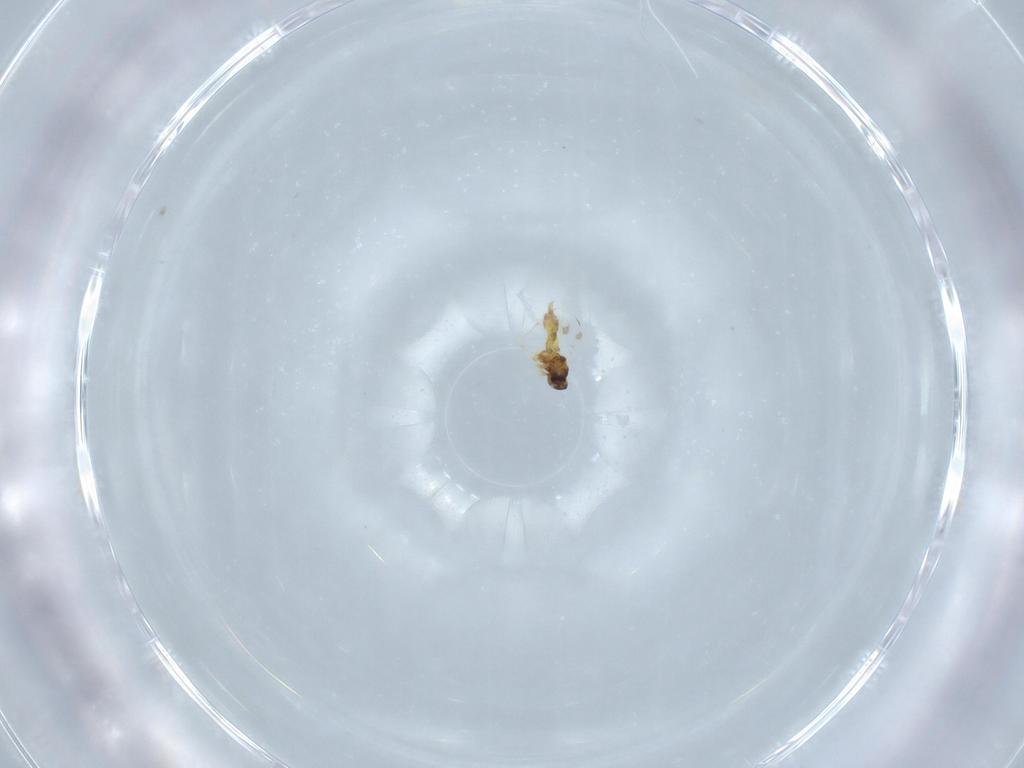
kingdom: Animalia
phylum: Arthropoda
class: Insecta
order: Hemiptera
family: Aleyrodidae
